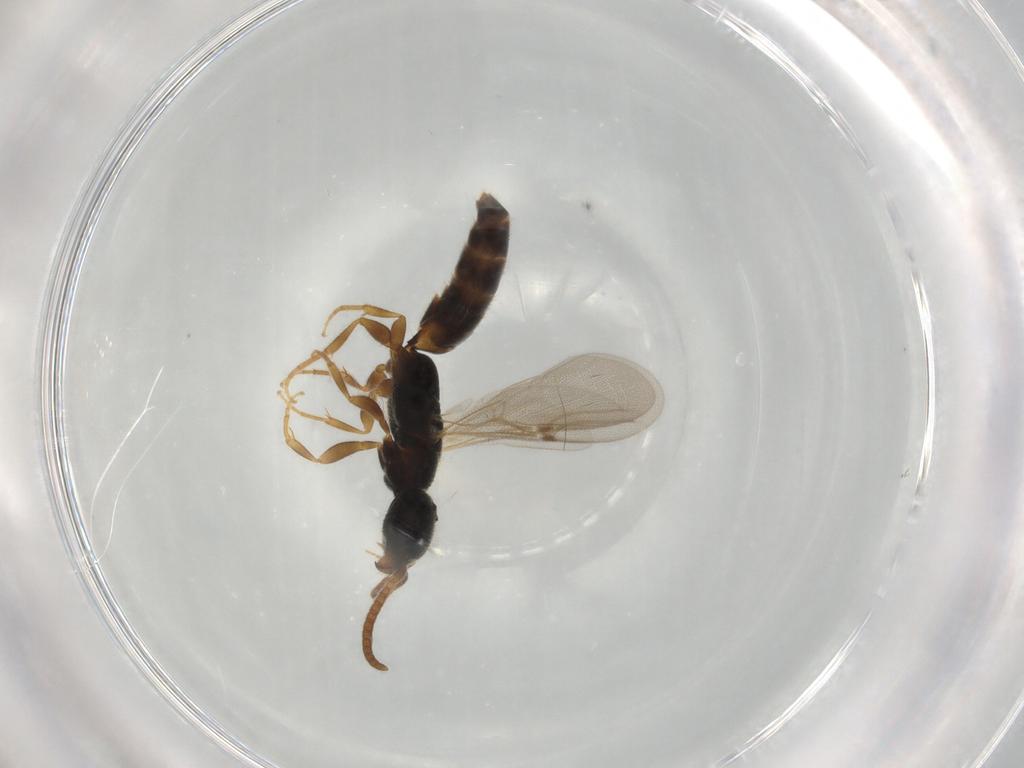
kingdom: Animalia
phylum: Arthropoda
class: Insecta
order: Hymenoptera
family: Bethylidae
